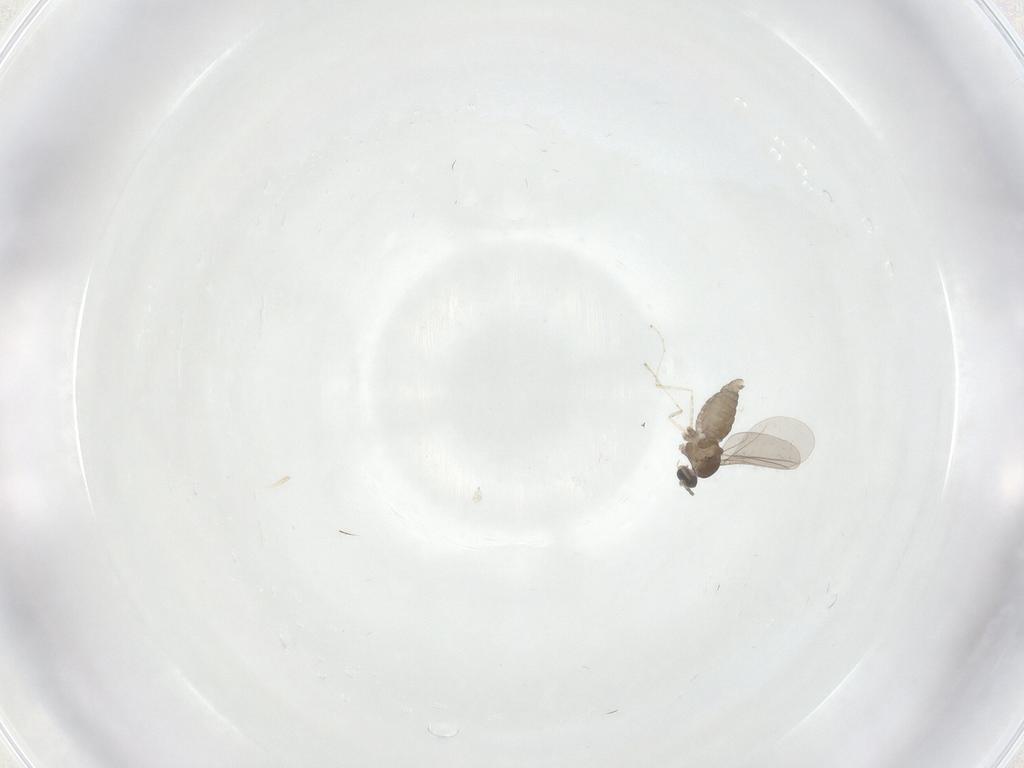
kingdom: Animalia
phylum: Arthropoda
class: Insecta
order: Diptera
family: Cecidomyiidae
